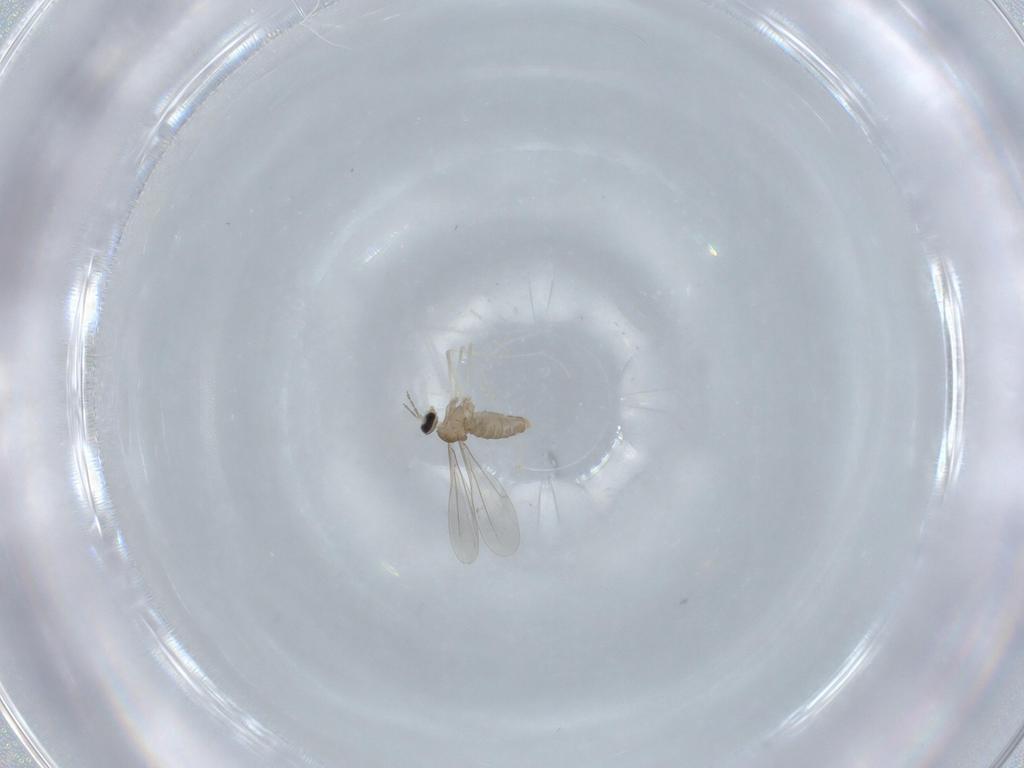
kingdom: Animalia
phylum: Arthropoda
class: Insecta
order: Diptera
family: Cecidomyiidae
